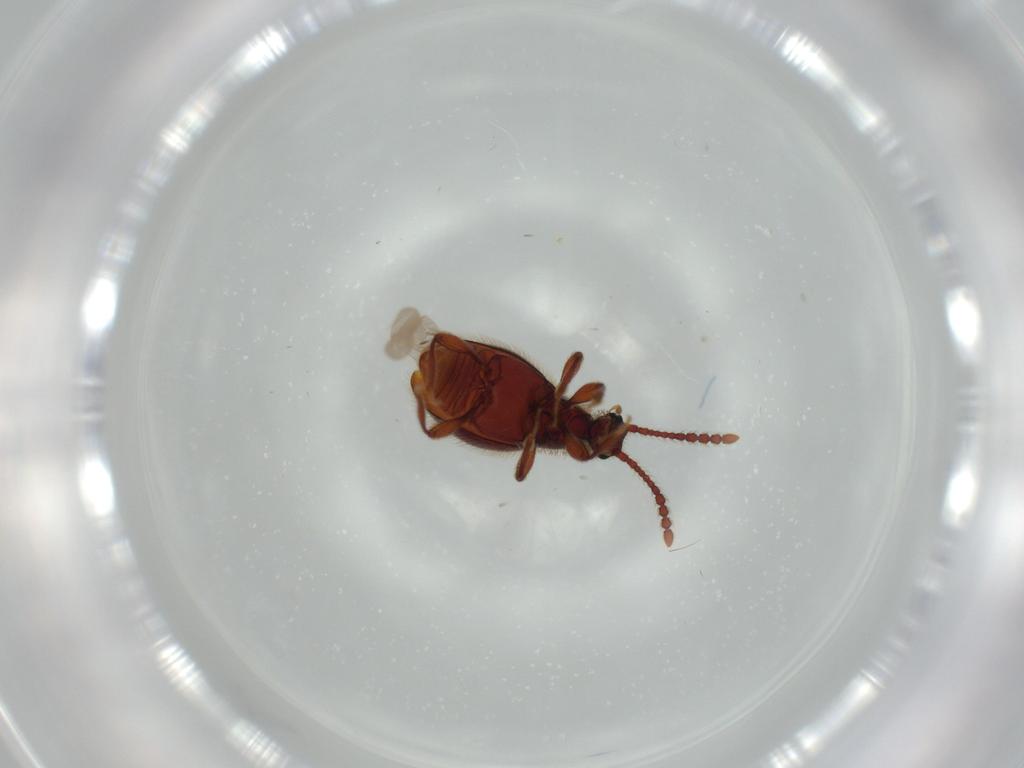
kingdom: Animalia
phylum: Arthropoda
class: Insecta
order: Coleoptera
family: Chrysomelidae
